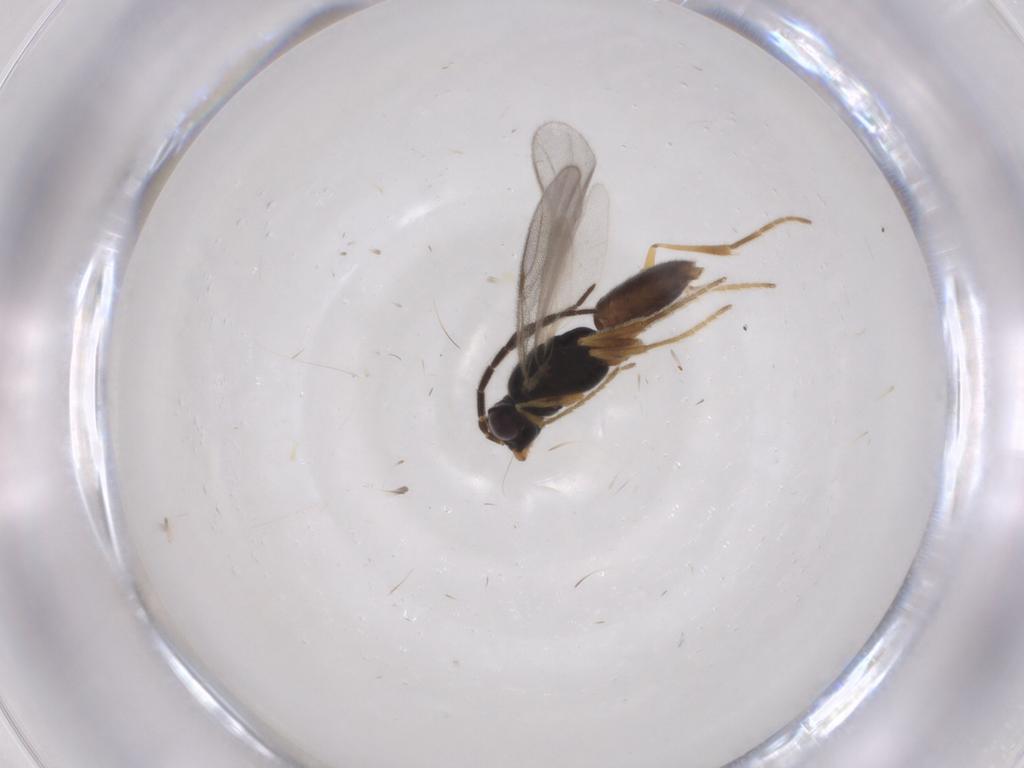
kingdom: Animalia
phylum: Arthropoda
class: Insecta
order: Hymenoptera
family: Dryinidae
